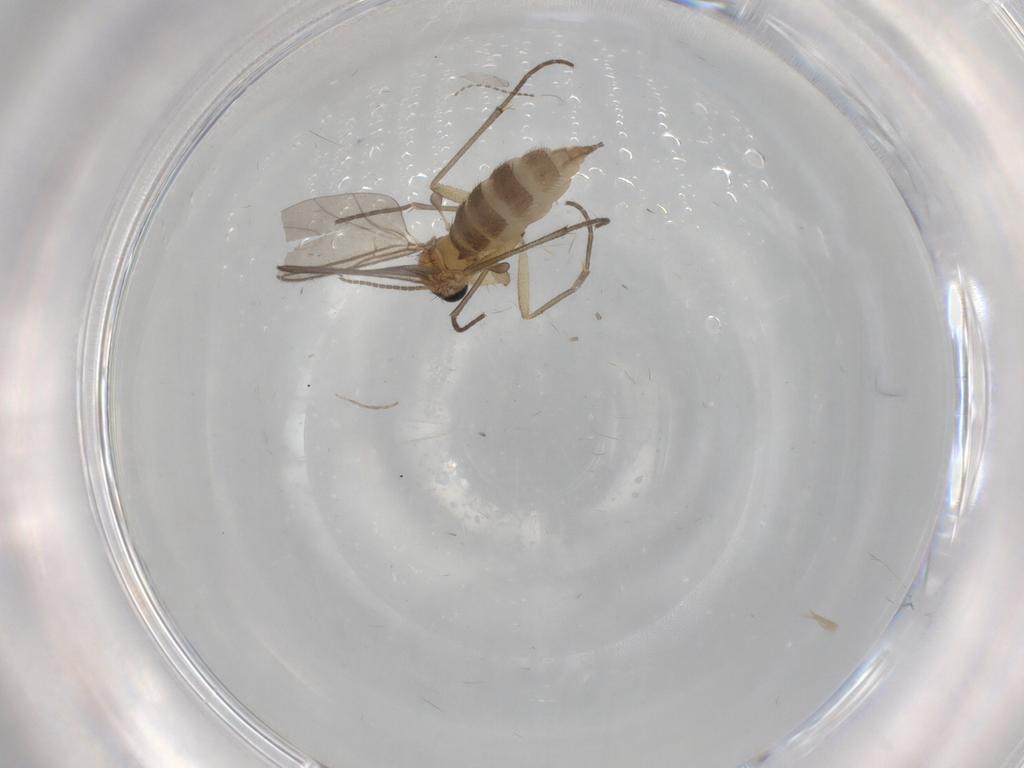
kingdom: Animalia
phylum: Arthropoda
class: Insecta
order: Diptera
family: Sciaridae
